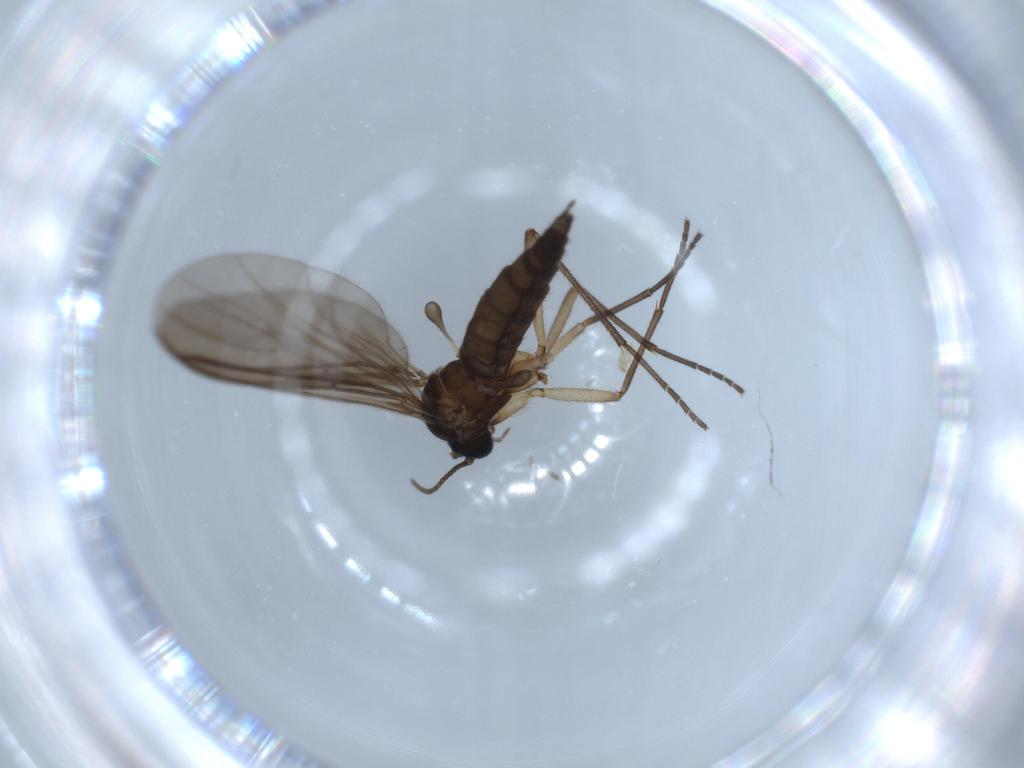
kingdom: Animalia
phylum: Arthropoda
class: Insecta
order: Diptera
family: Sciaridae
